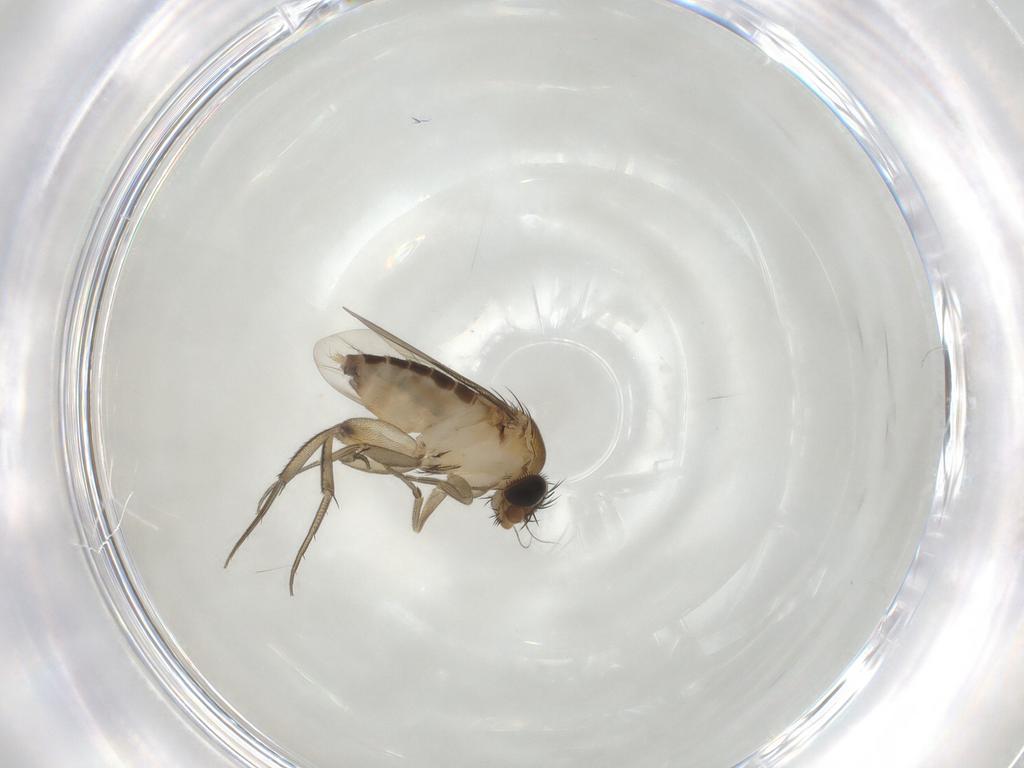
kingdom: Animalia
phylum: Arthropoda
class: Insecta
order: Diptera
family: Phoridae
